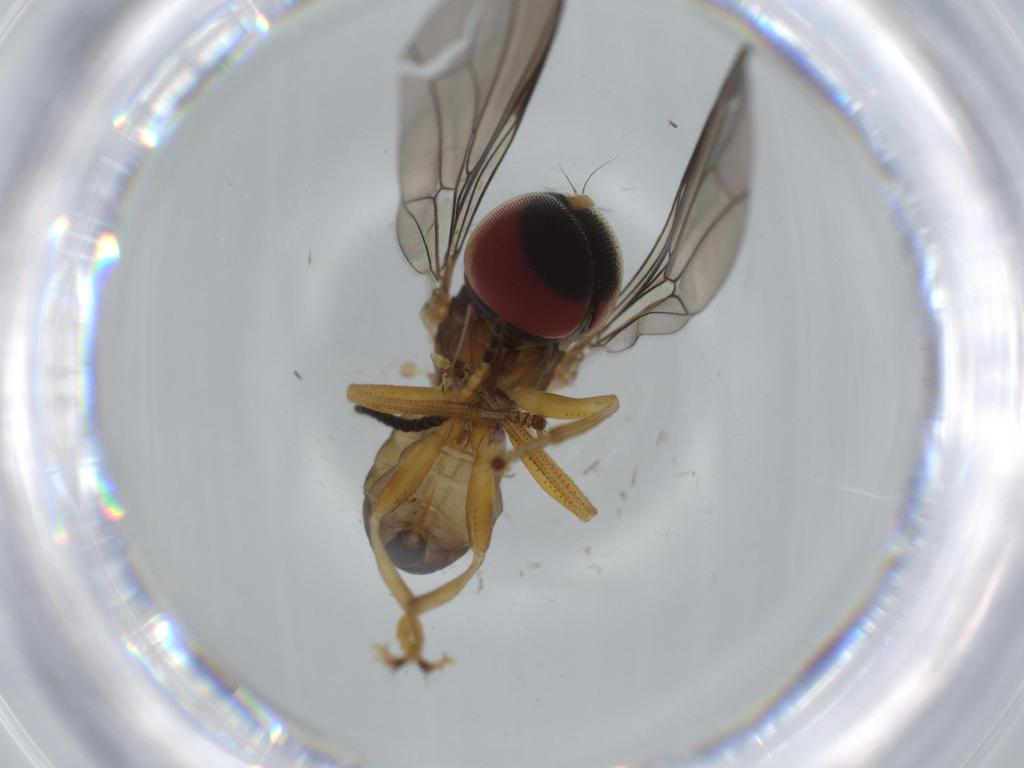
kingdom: Animalia
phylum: Arthropoda
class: Insecta
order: Diptera
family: Pipunculidae
